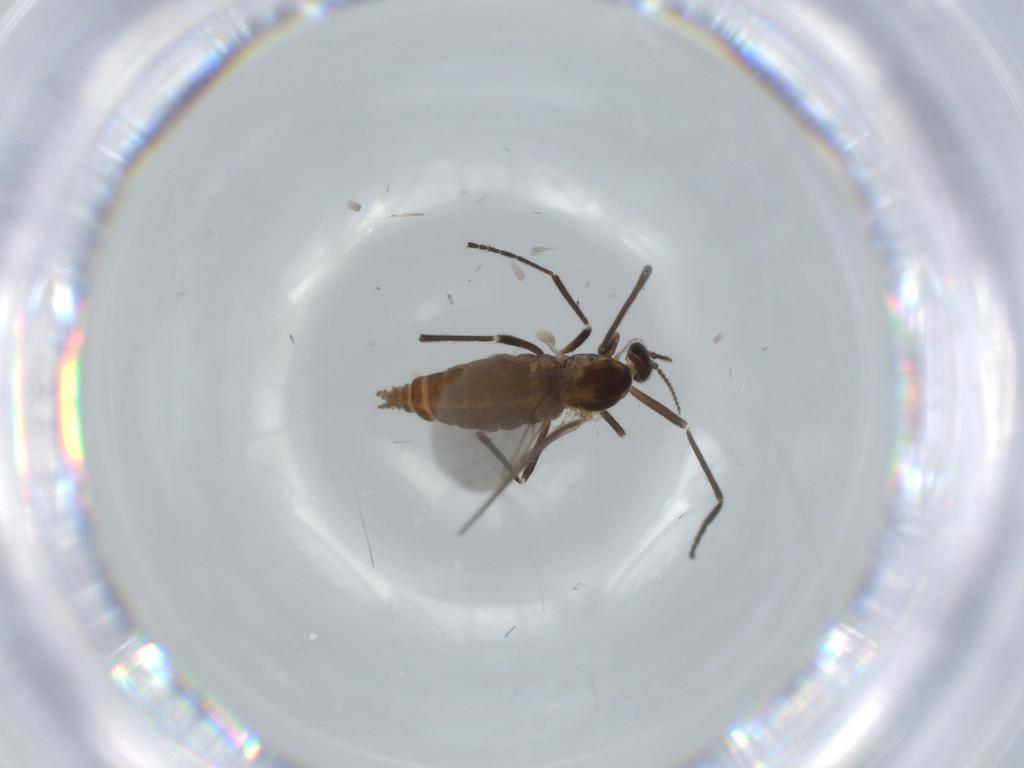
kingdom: Animalia
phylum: Arthropoda
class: Insecta
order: Diptera
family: Cecidomyiidae
